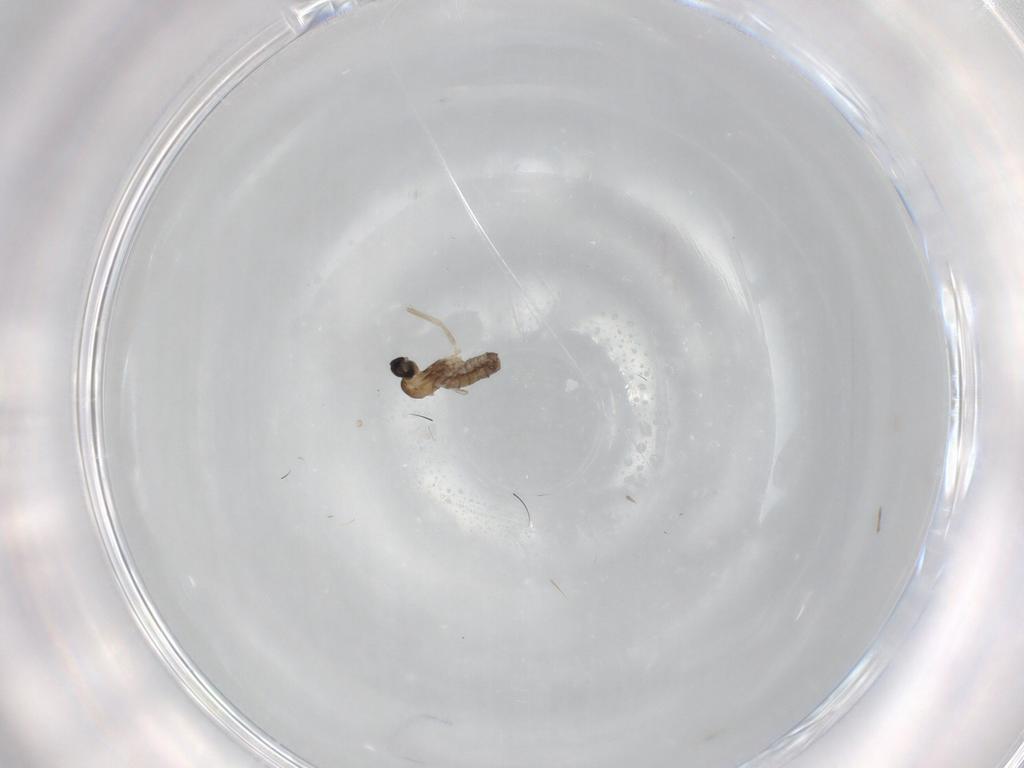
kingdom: Animalia
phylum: Arthropoda
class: Insecta
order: Diptera
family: Cecidomyiidae
